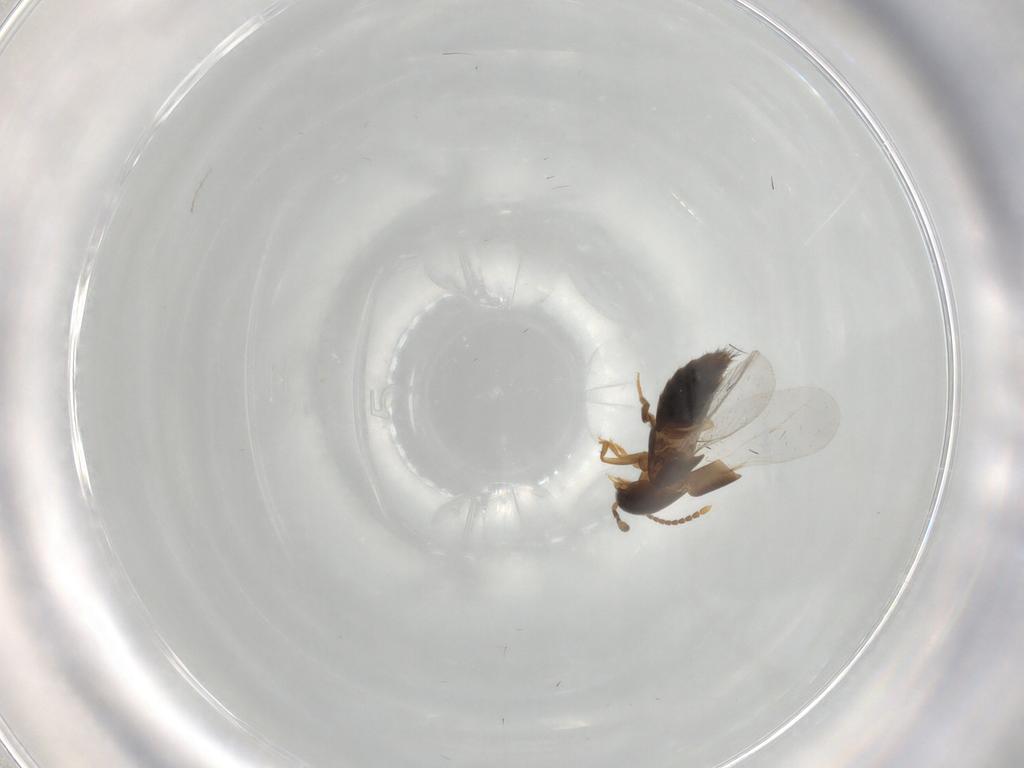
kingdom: Animalia
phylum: Arthropoda
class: Insecta
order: Coleoptera
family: Staphylinidae
